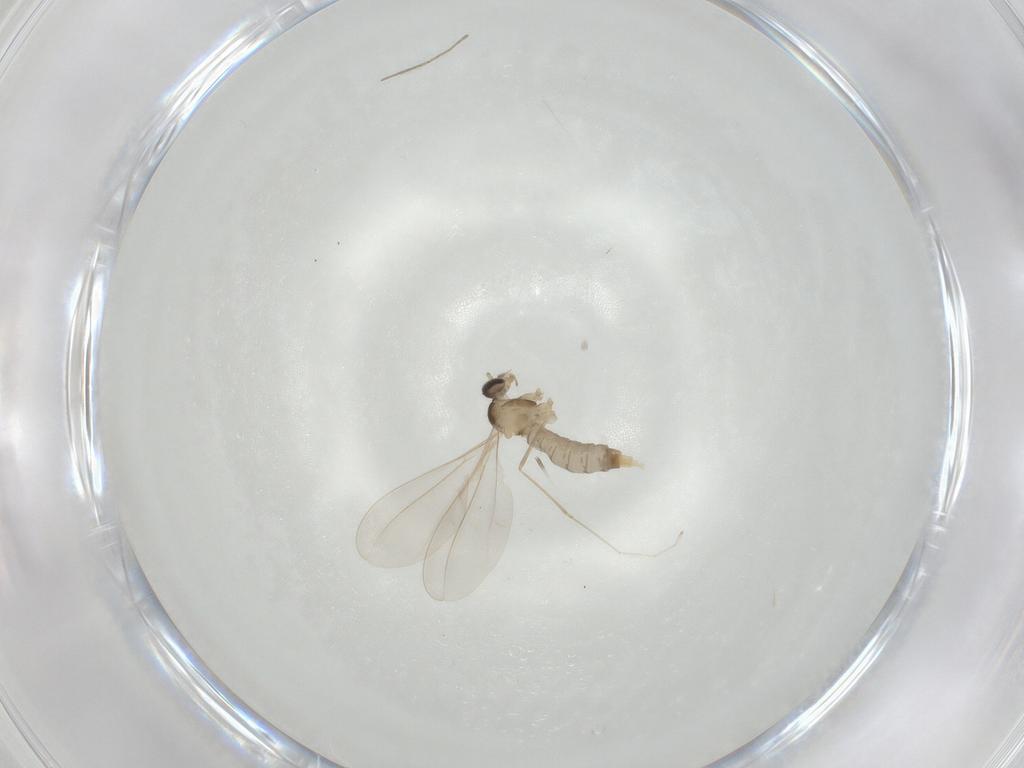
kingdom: Animalia
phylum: Arthropoda
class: Insecta
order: Diptera
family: Cecidomyiidae
